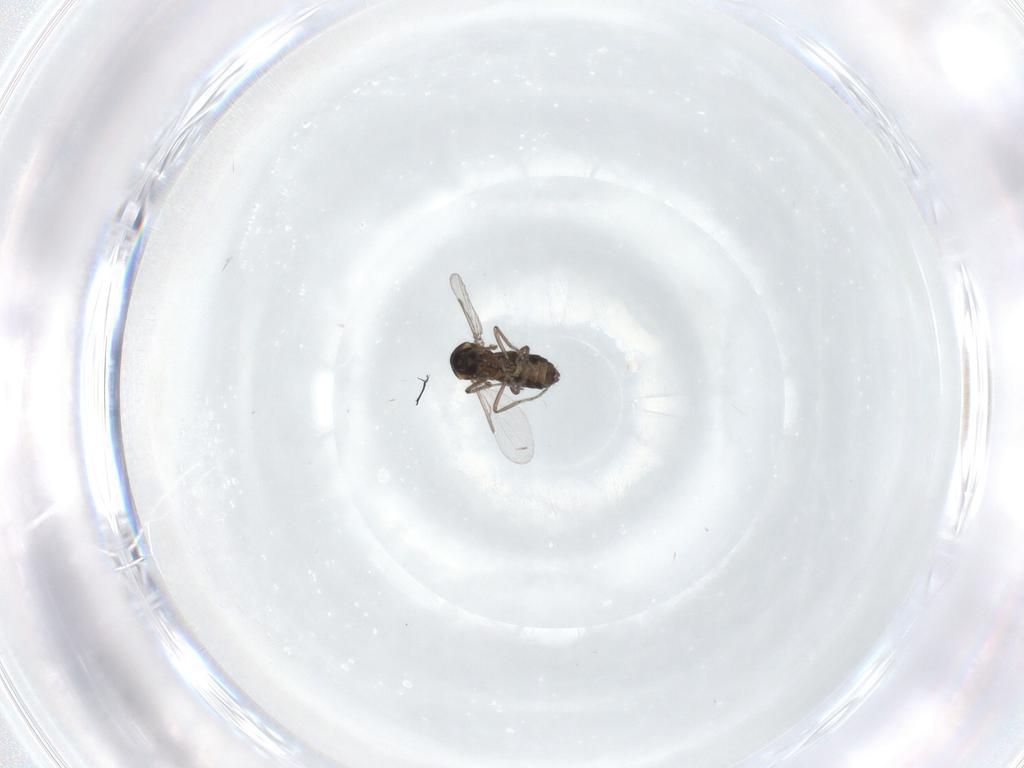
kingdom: Animalia
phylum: Arthropoda
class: Insecta
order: Diptera
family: Ceratopogonidae
